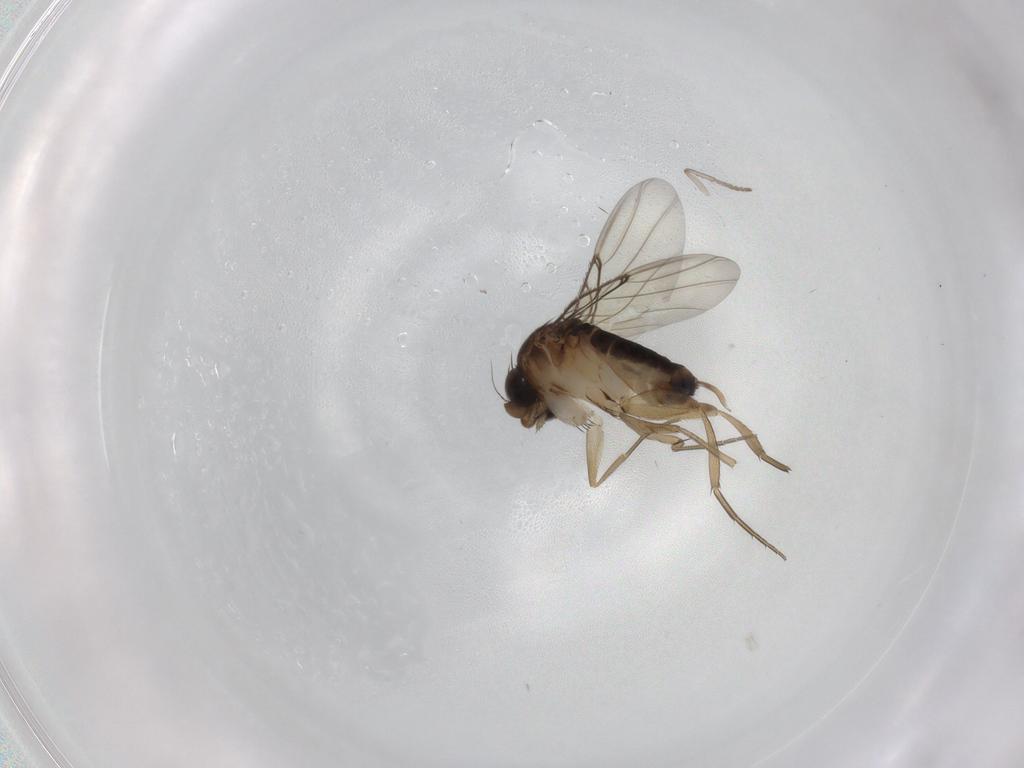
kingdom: Animalia
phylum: Arthropoda
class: Insecta
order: Diptera
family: Phoridae
